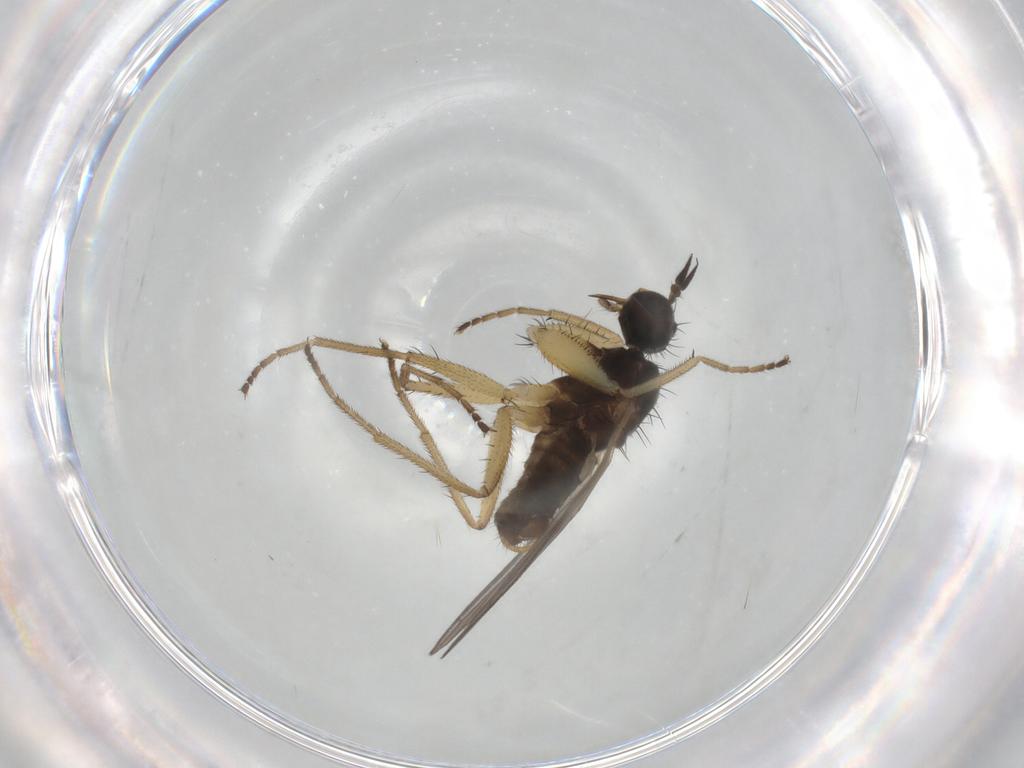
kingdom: Animalia
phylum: Arthropoda
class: Insecta
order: Diptera
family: Empididae
